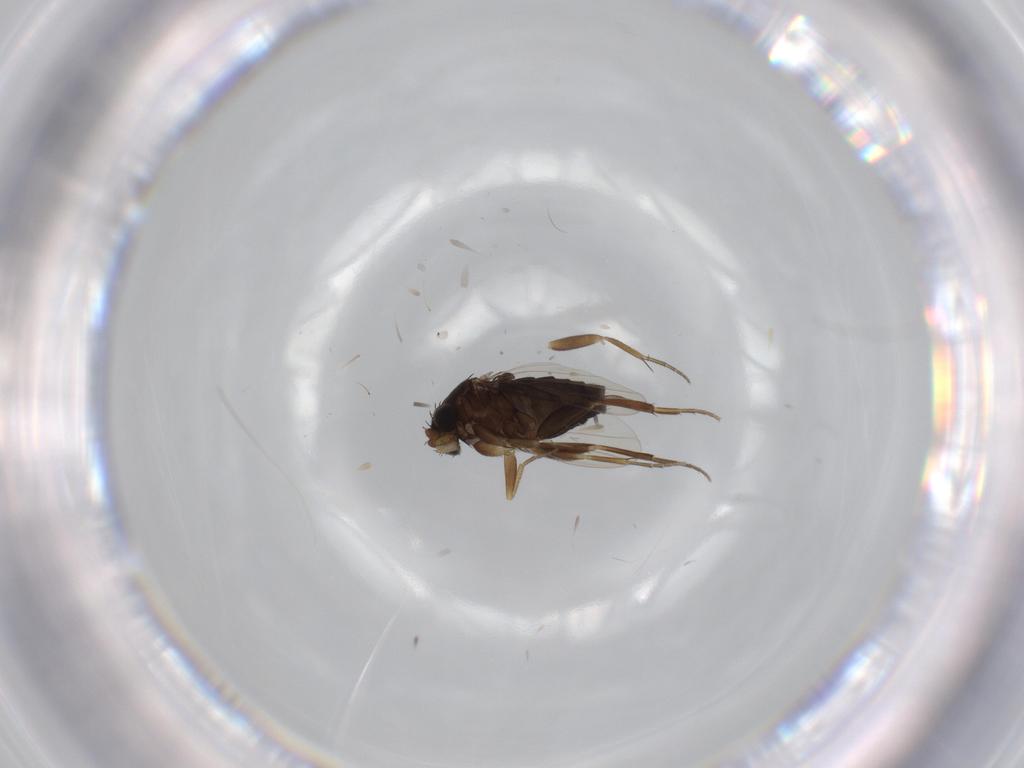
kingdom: Animalia
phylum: Arthropoda
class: Insecta
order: Diptera
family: Phoridae
